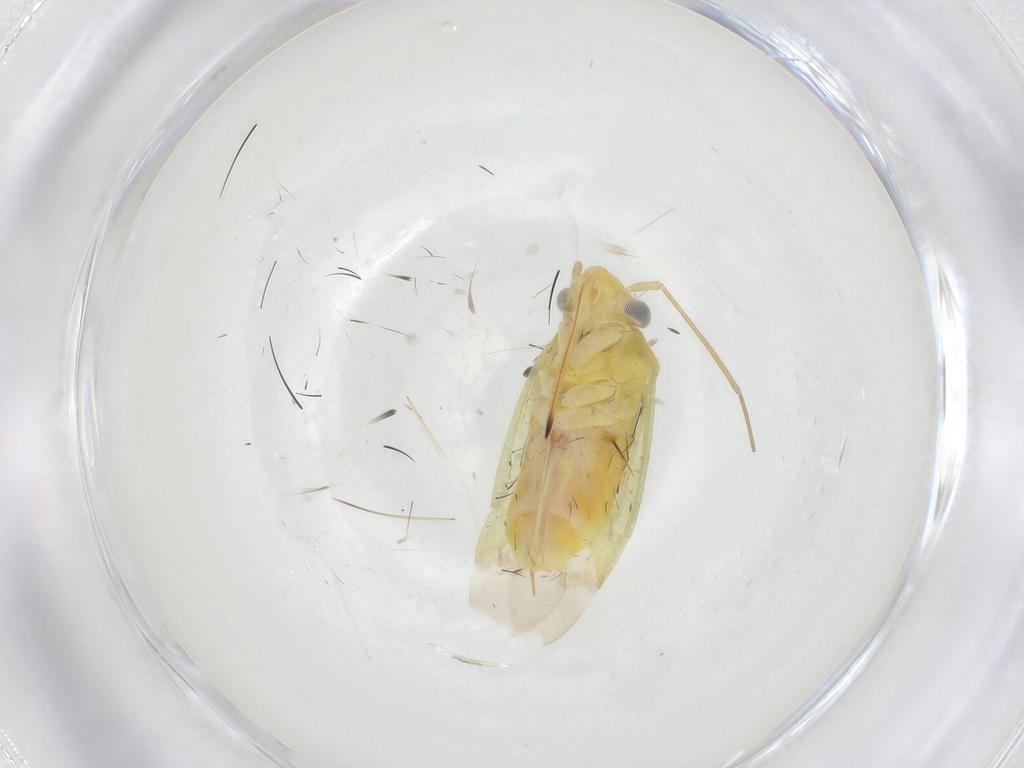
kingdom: Animalia
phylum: Arthropoda
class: Insecta
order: Hemiptera
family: Miridae
